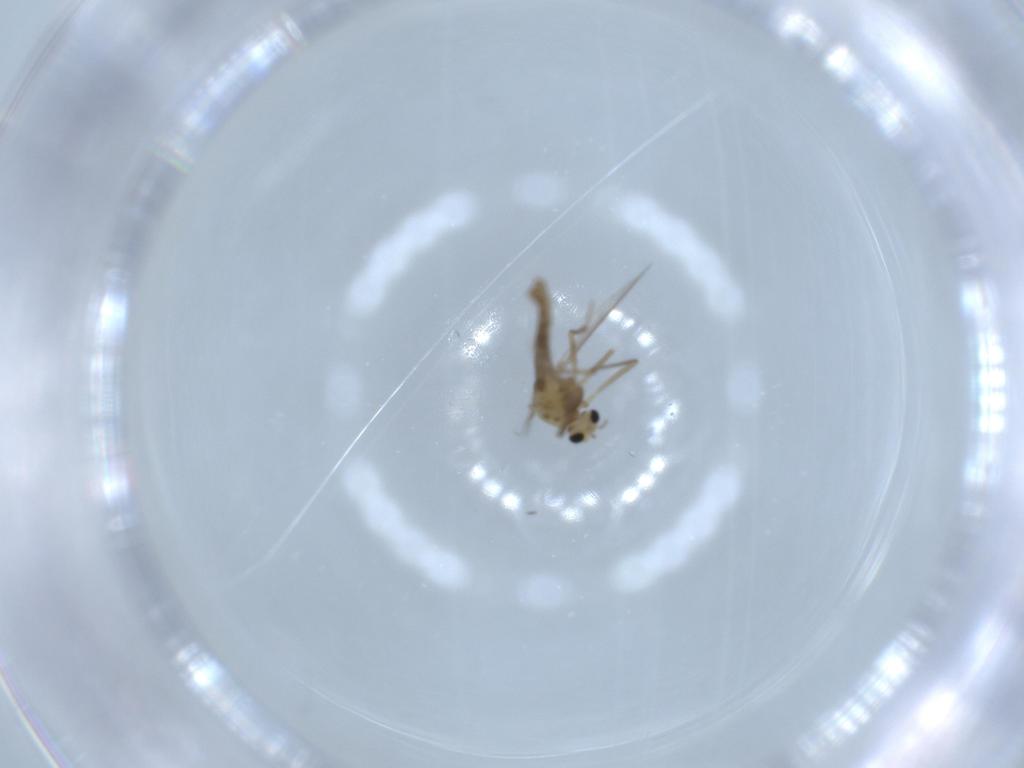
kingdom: Animalia
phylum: Arthropoda
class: Insecta
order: Diptera
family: Chironomidae
